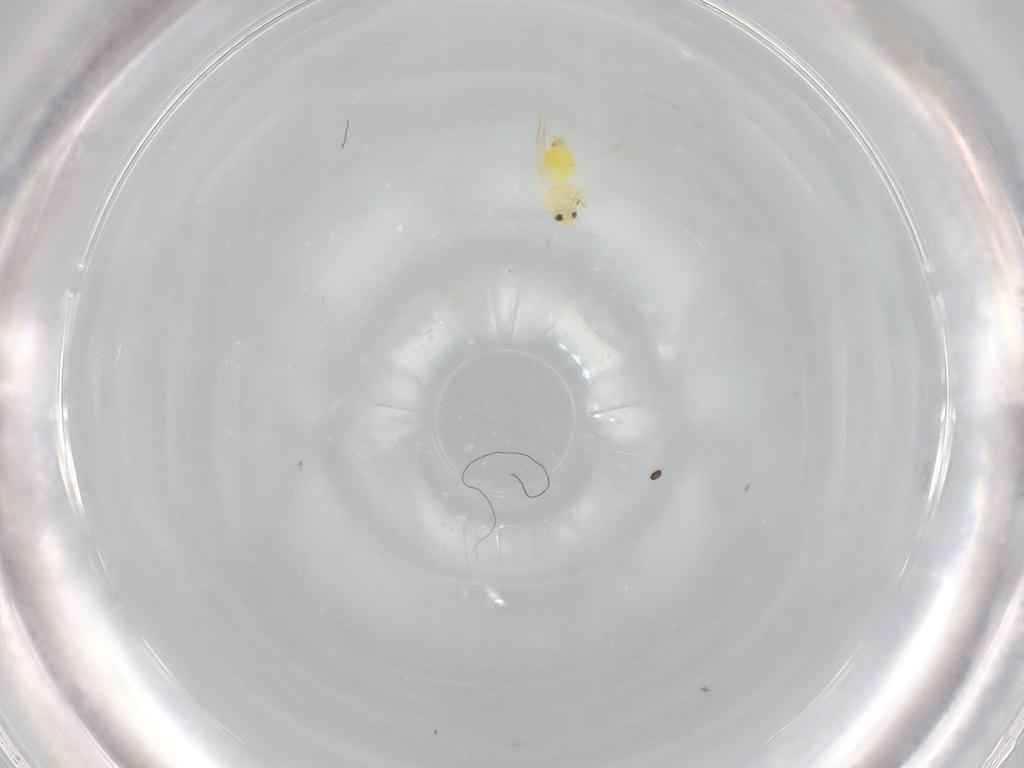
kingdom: Animalia
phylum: Arthropoda
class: Insecta
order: Hemiptera
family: Aleyrodidae
